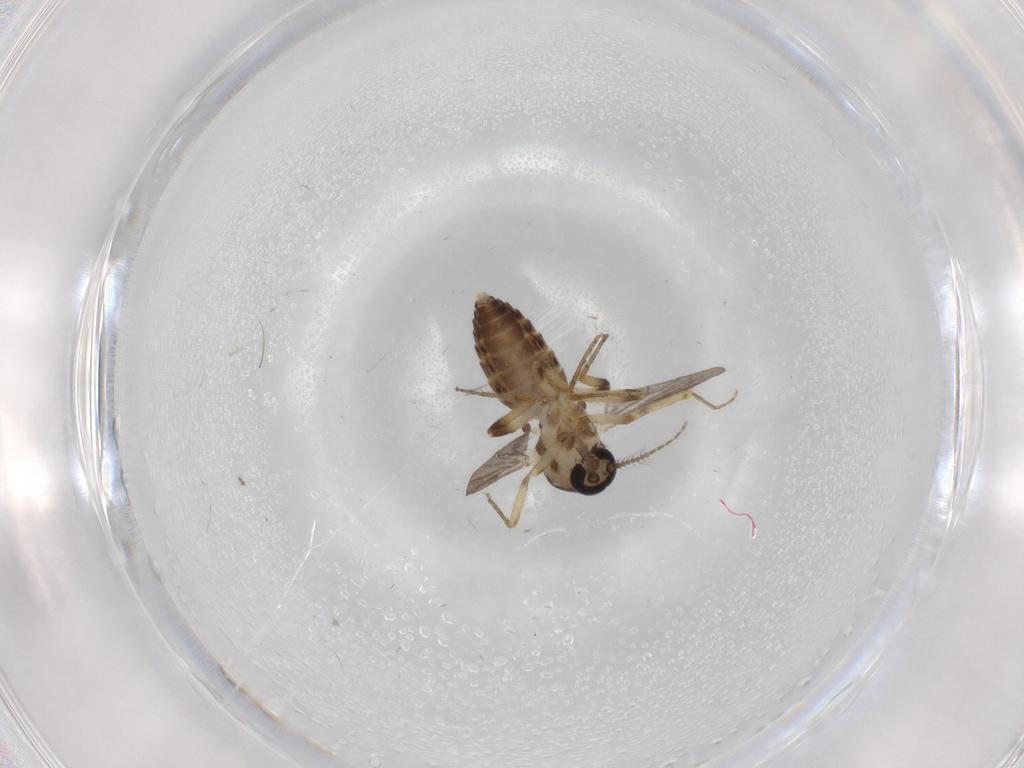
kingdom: Animalia
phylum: Arthropoda
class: Insecta
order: Diptera
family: Ceratopogonidae
